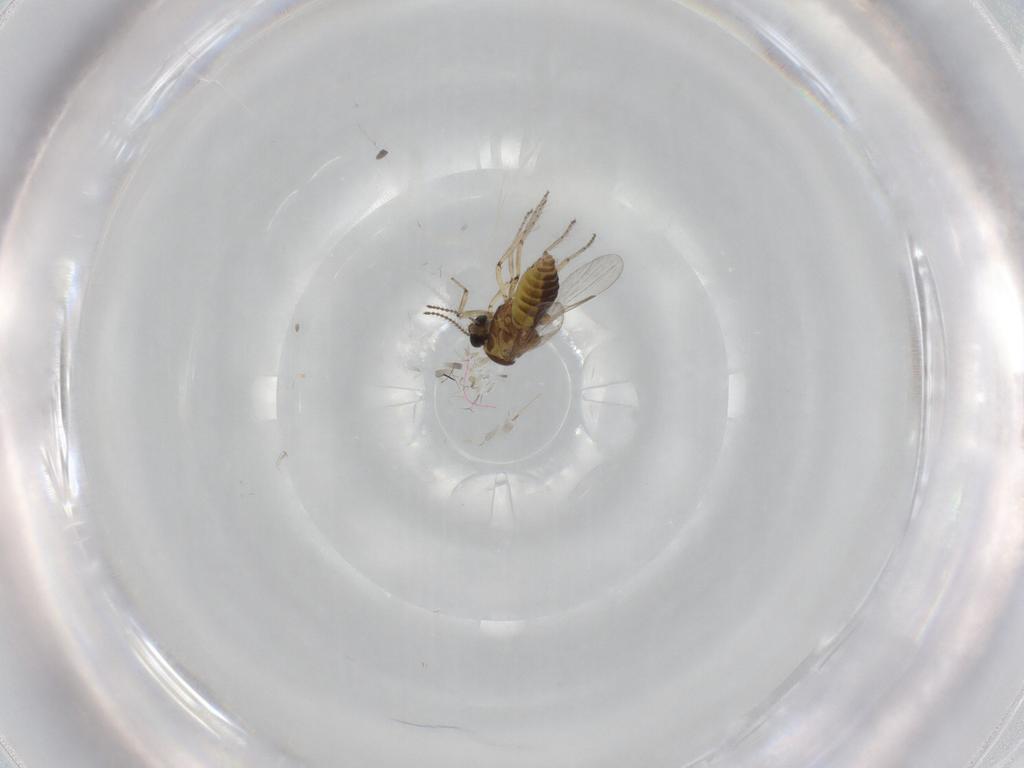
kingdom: Animalia
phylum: Arthropoda
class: Insecta
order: Diptera
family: Ceratopogonidae
